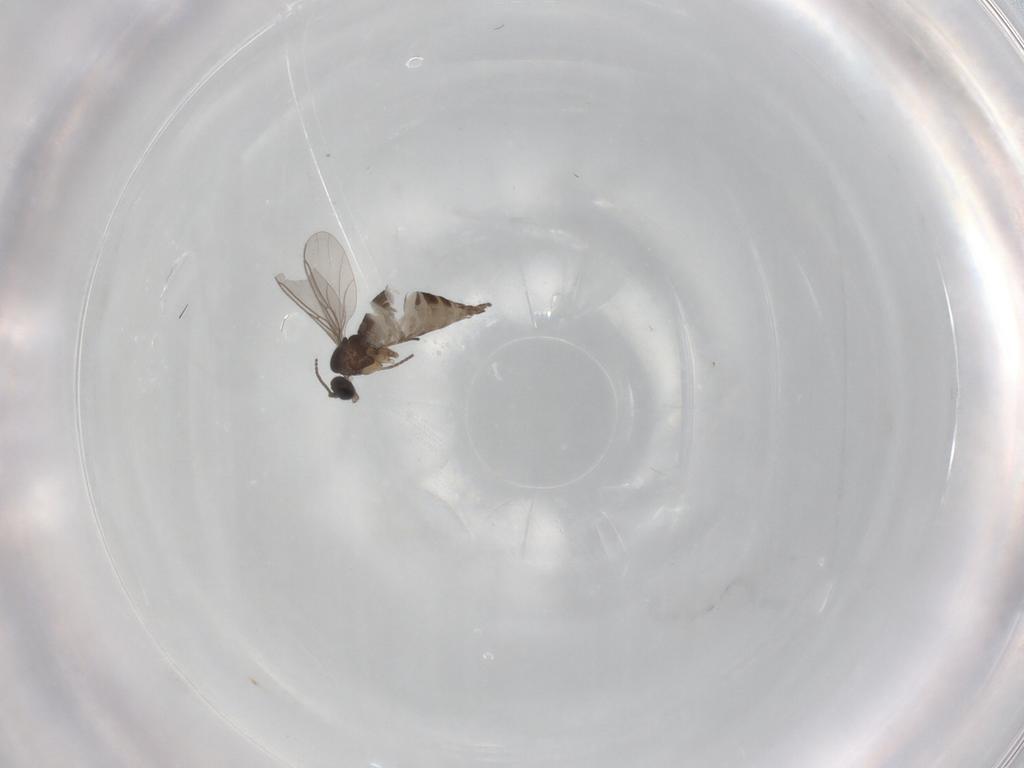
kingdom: Animalia
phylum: Arthropoda
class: Insecta
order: Diptera
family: Sciaridae
